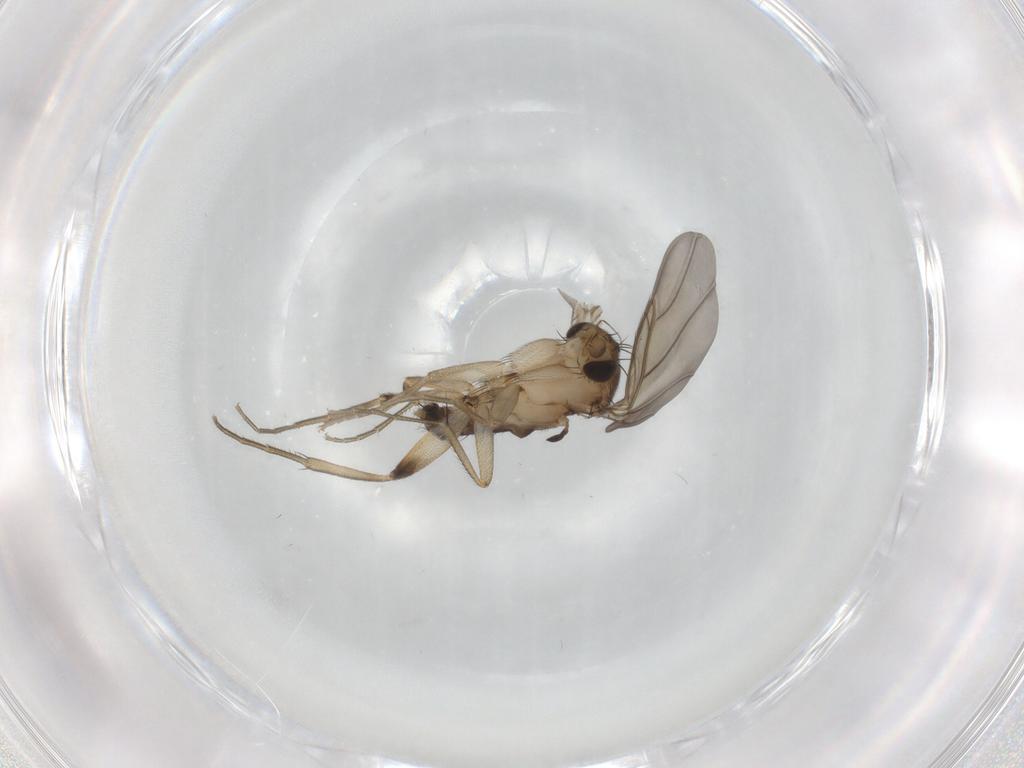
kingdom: Animalia
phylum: Arthropoda
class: Insecta
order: Diptera
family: Phoridae
